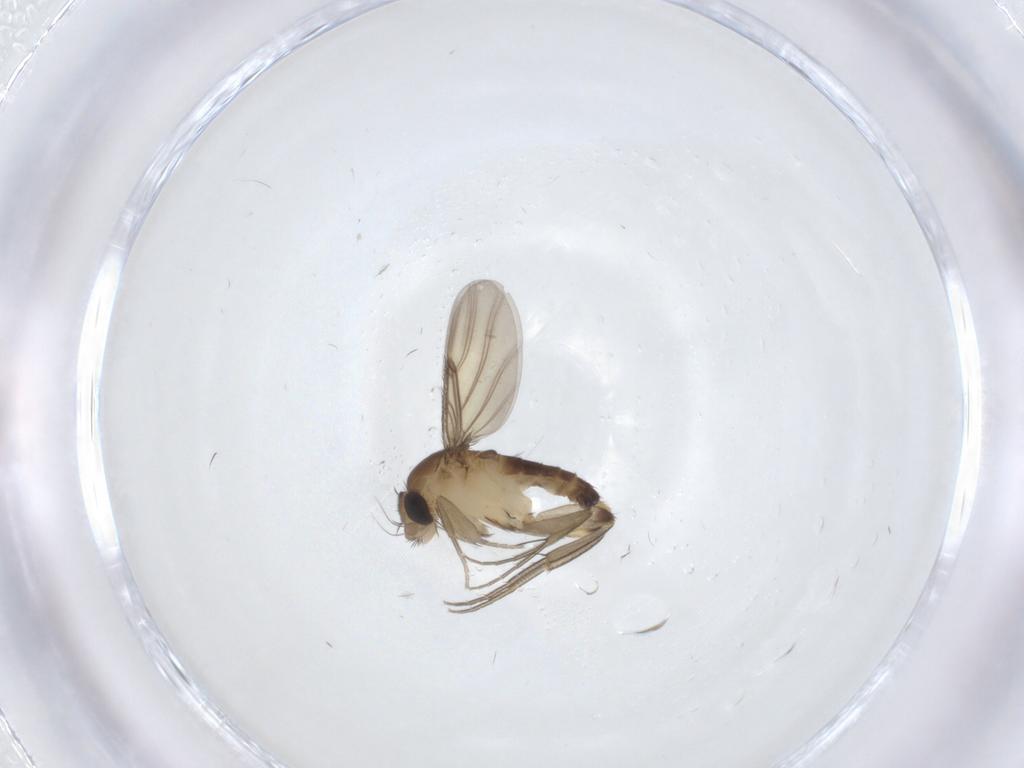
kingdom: Animalia
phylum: Arthropoda
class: Insecta
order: Diptera
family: Phoridae
